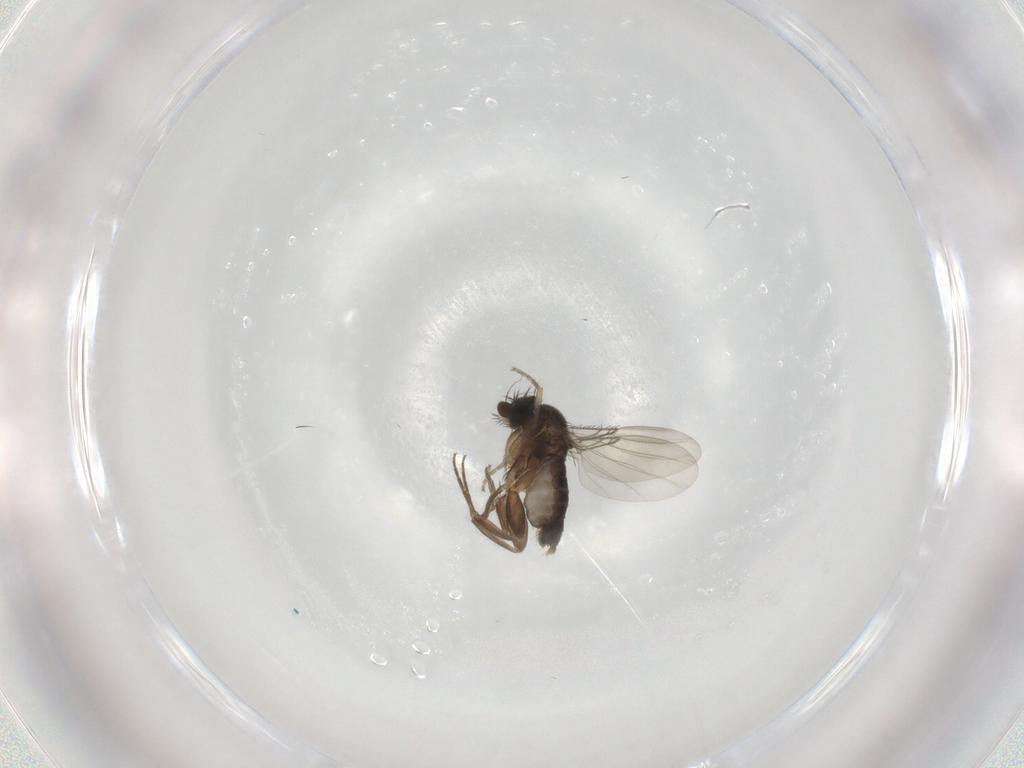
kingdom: Animalia
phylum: Arthropoda
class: Insecta
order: Diptera
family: Phoridae
